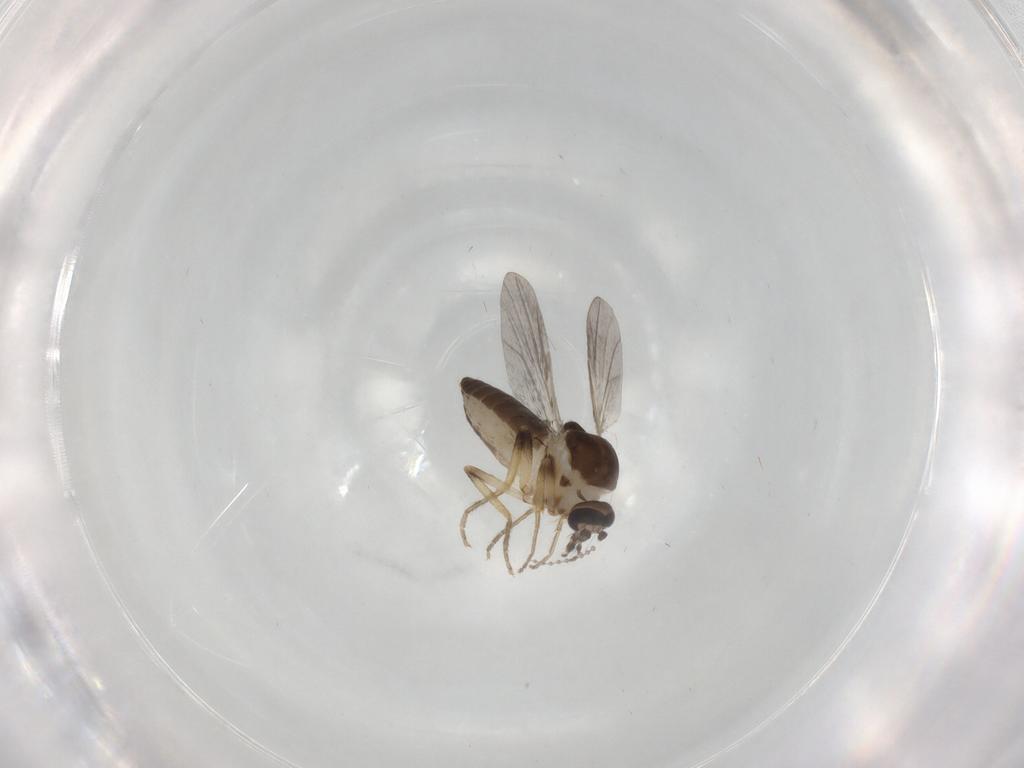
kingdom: Animalia
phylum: Arthropoda
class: Insecta
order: Diptera
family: Ceratopogonidae
